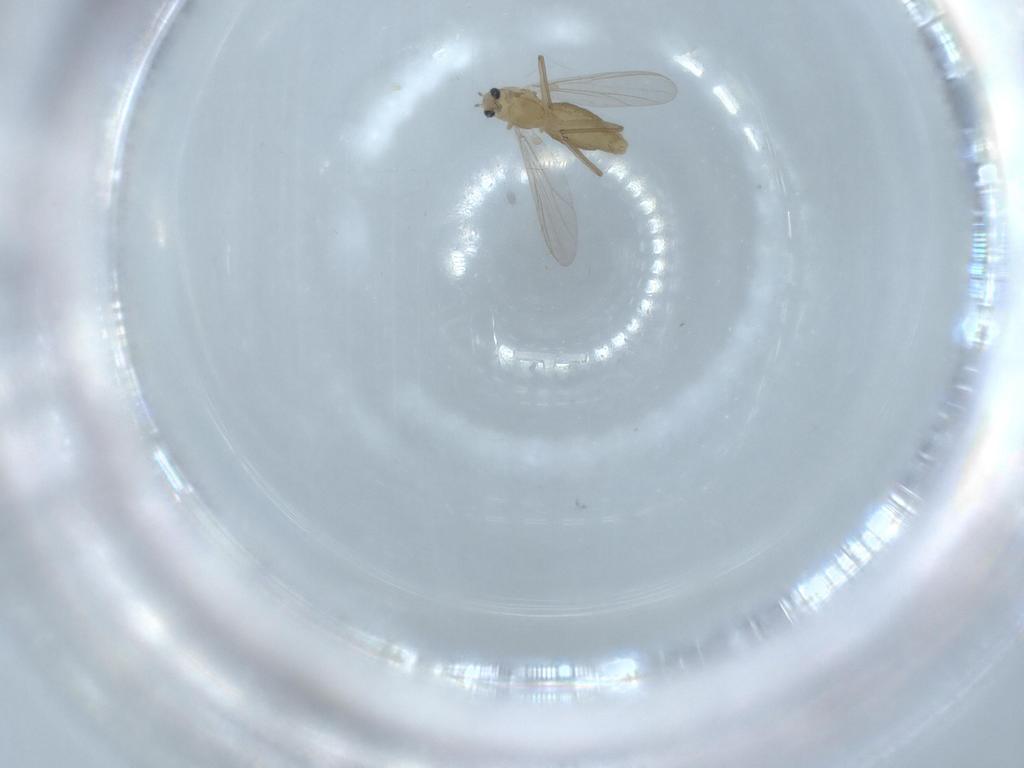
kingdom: Animalia
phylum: Arthropoda
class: Insecta
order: Diptera
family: Chironomidae
